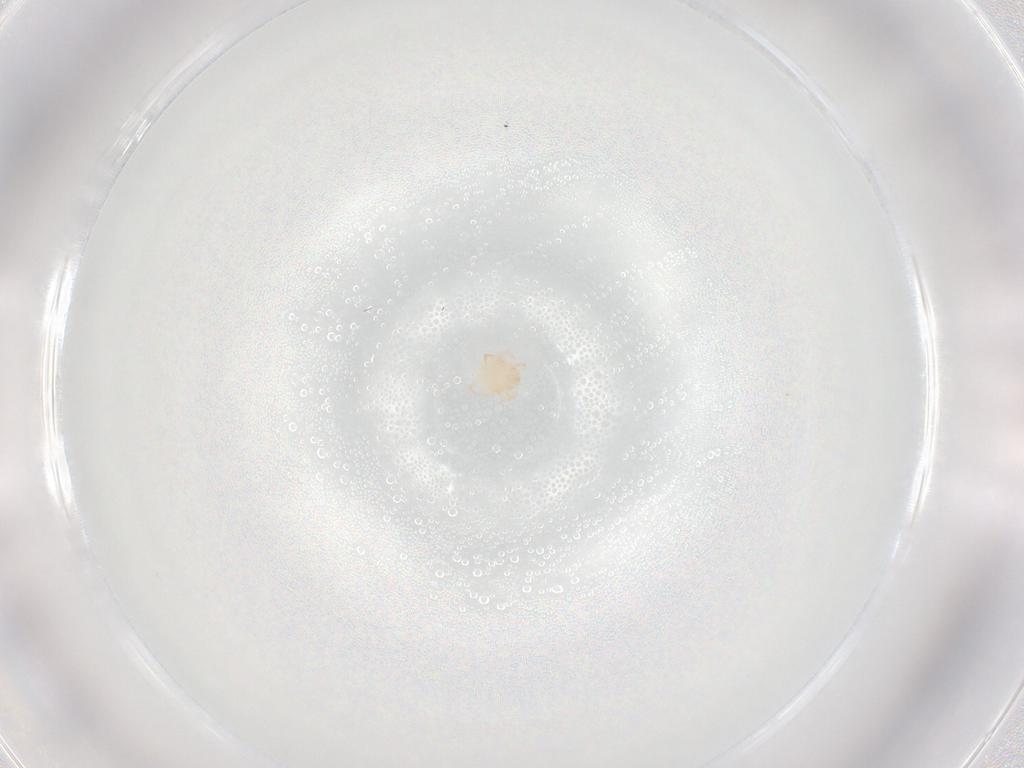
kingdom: Animalia
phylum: Arthropoda
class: Arachnida
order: Trombidiformes
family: Sperchontidae
